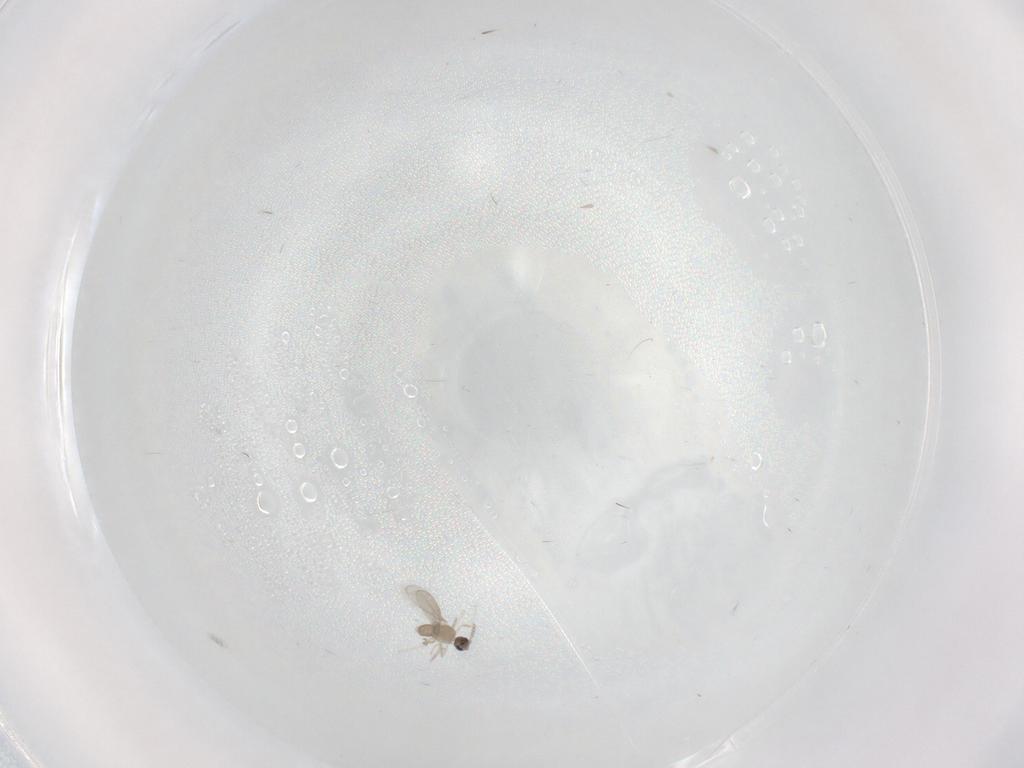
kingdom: Animalia
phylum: Arthropoda
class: Insecta
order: Diptera
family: Cecidomyiidae
